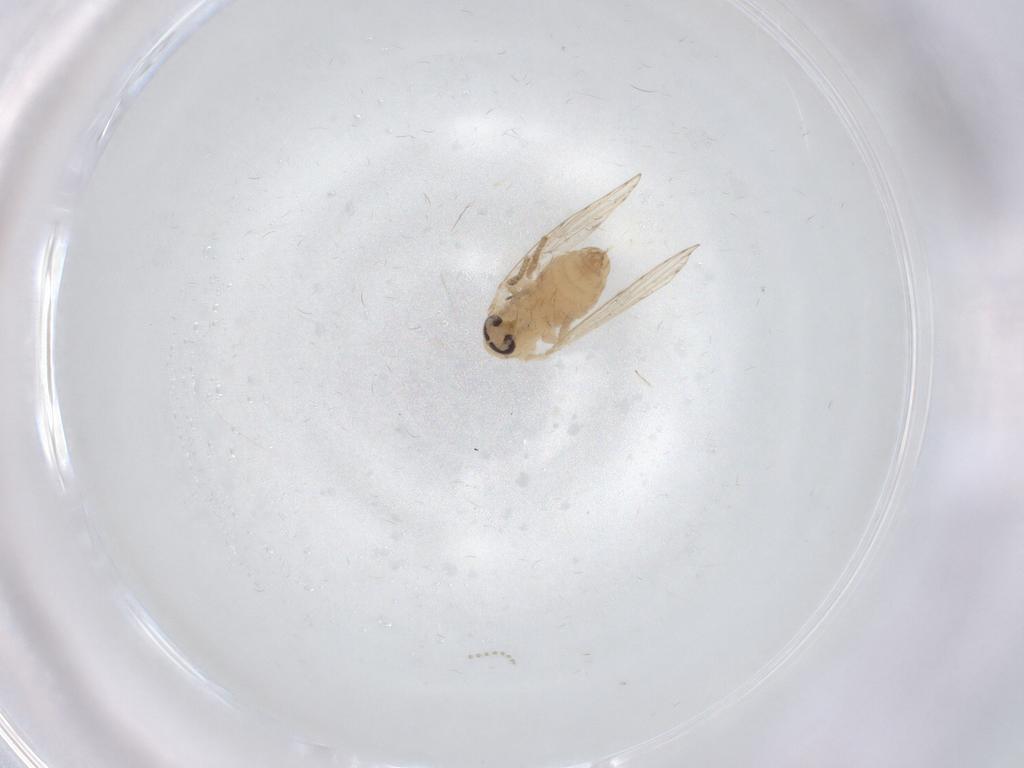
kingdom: Animalia
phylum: Arthropoda
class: Insecta
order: Diptera
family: Psychodidae
